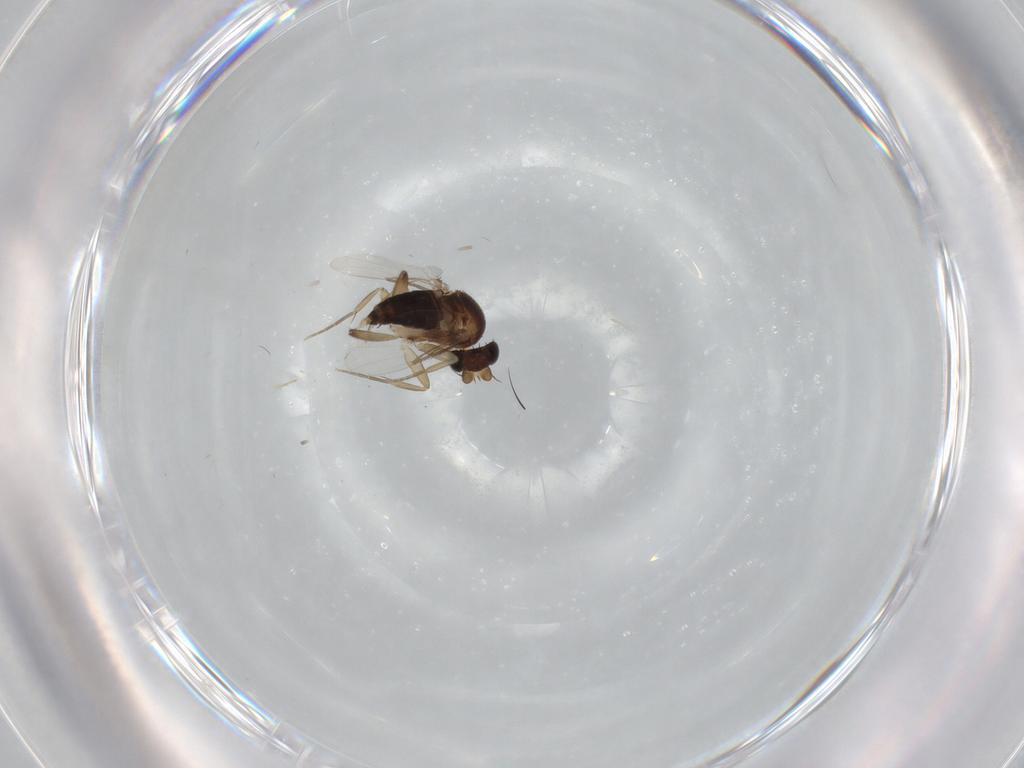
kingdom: Animalia
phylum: Arthropoda
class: Insecta
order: Diptera
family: Phoridae
